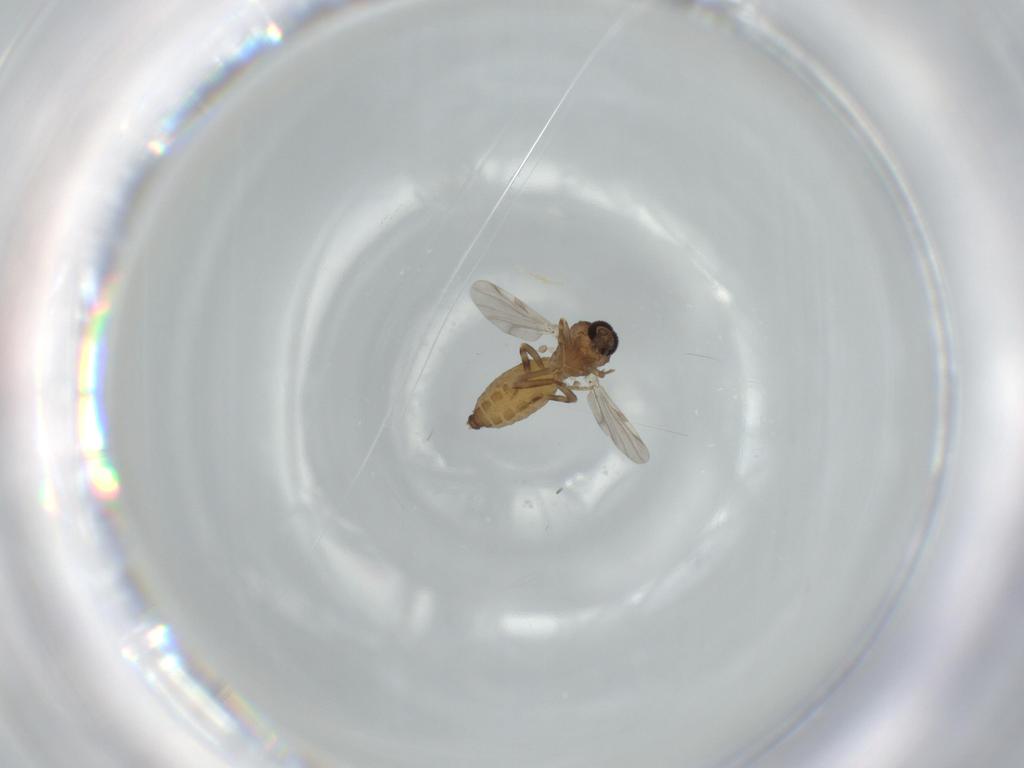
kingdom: Animalia
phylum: Arthropoda
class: Insecta
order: Diptera
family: Ceratopogonidae
